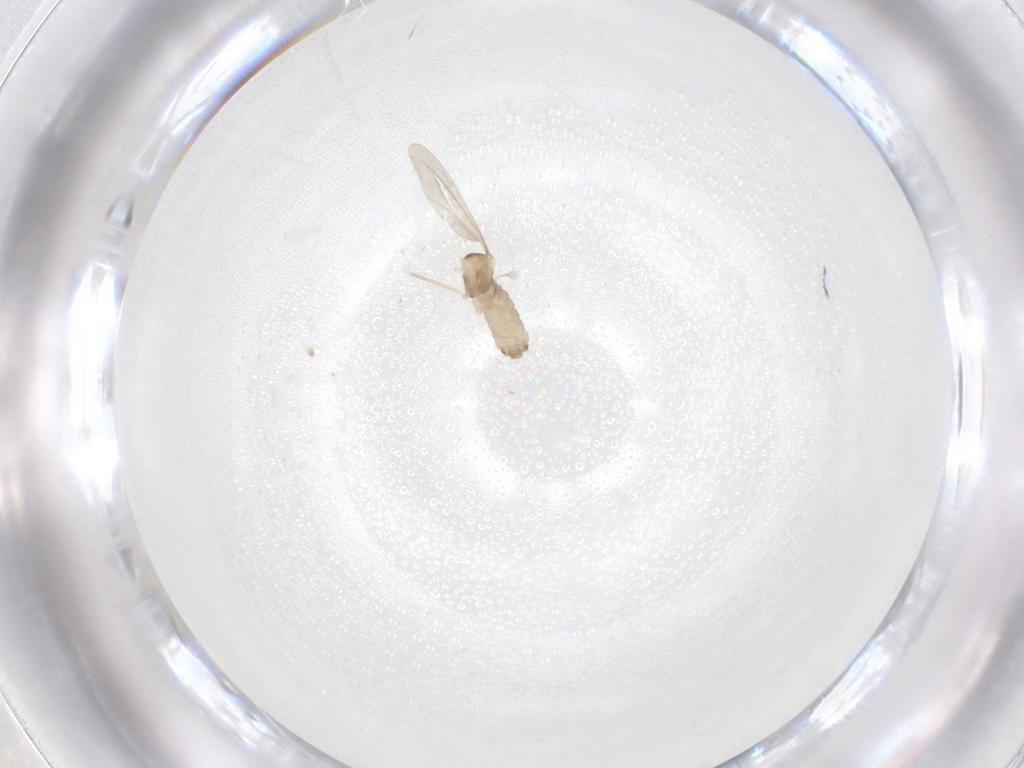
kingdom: Animalia
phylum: Arthropoda
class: Insecta
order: Diptera
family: Cecidomyiidae
